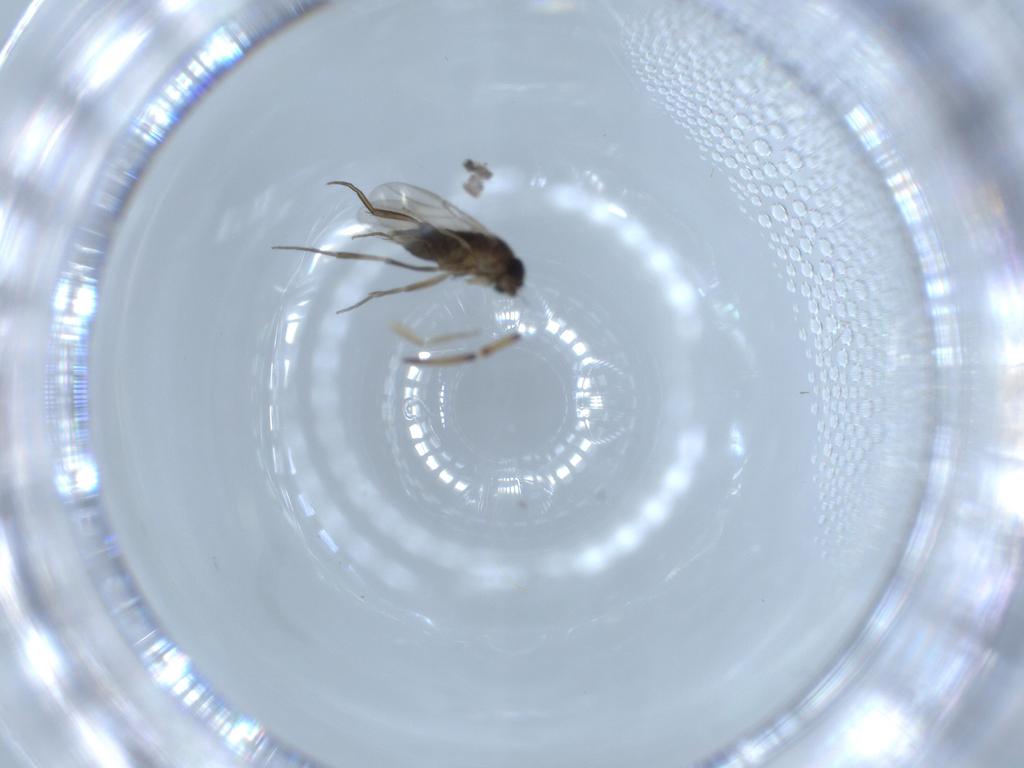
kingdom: Animalia
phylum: Arthropoda
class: Insecta
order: Diptera
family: Phoridae
